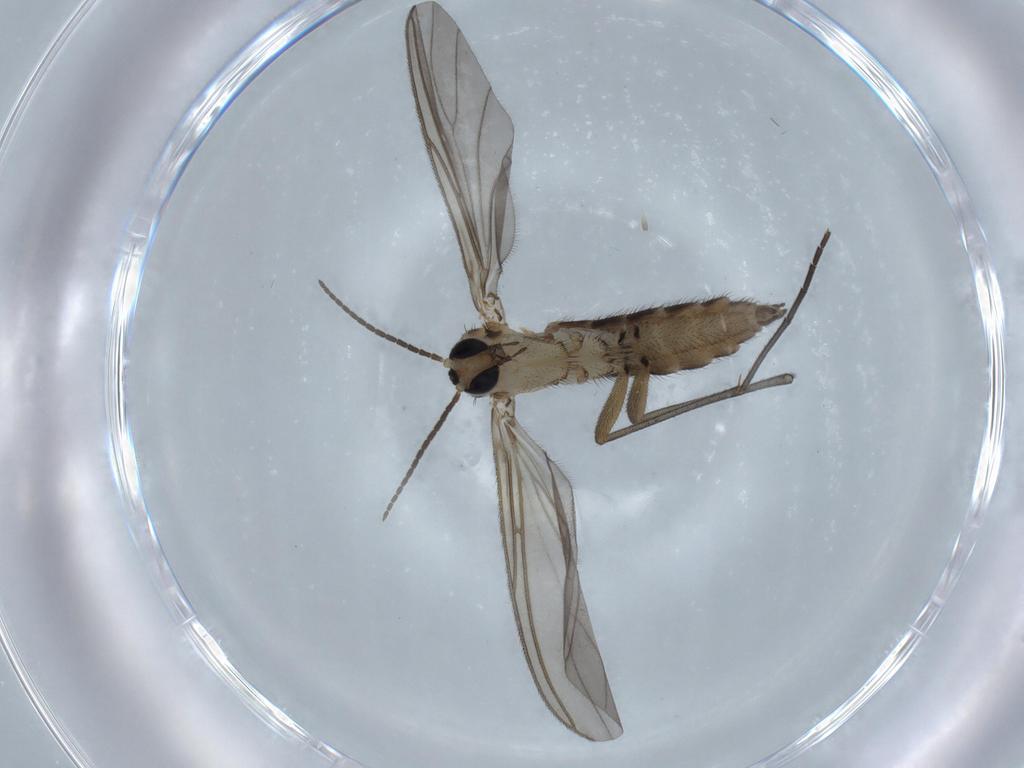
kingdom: Animalia
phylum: Arthropoda
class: Insecta
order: Diptera
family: Sciaridae
